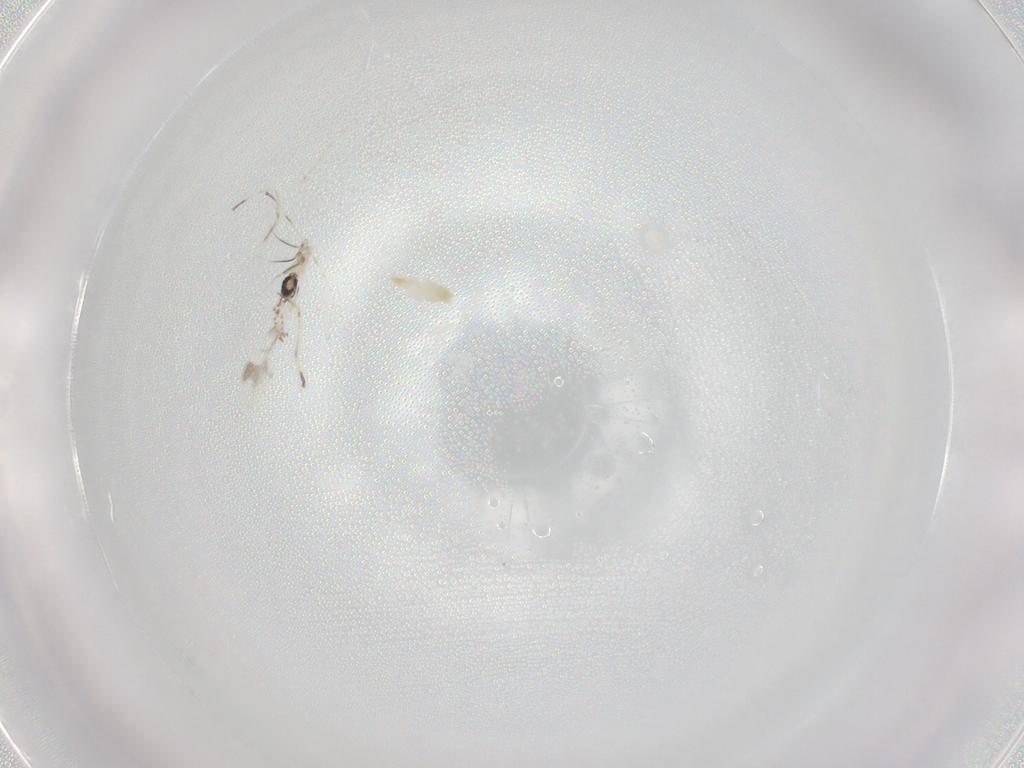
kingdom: Animalia
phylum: Arthropoda
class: Insecta
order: Diptera
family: Cecidomyiidae
